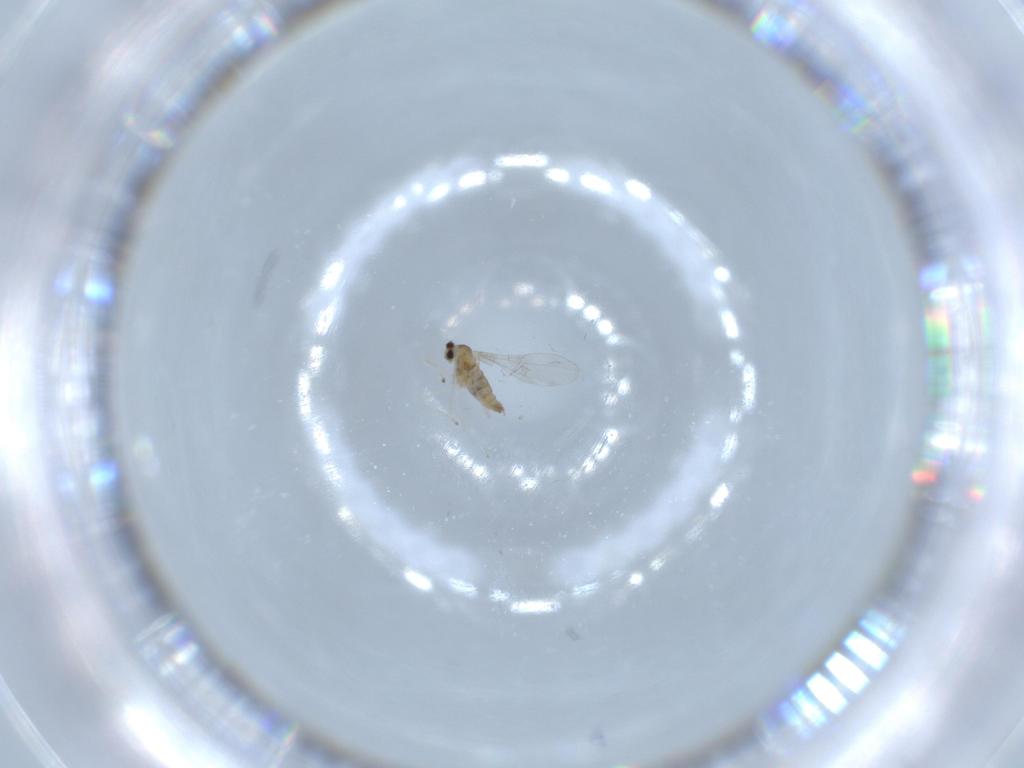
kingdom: Animalia
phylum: Arthropoda
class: Insecta
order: Diptera
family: Cecidomyiidae
